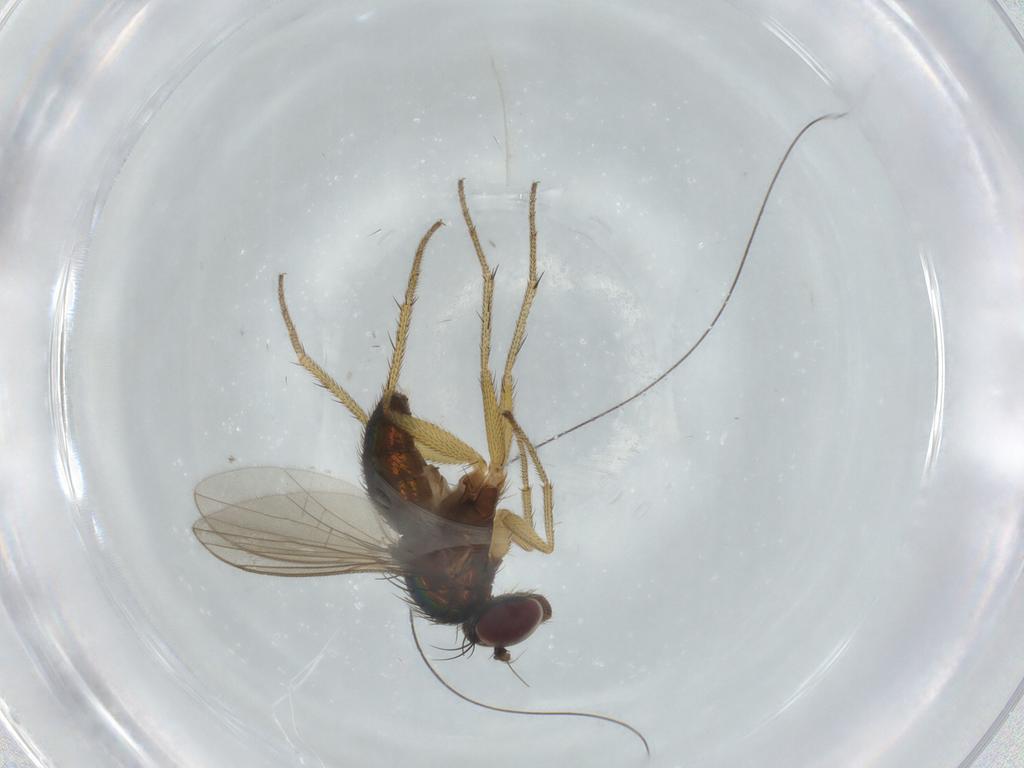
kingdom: Animalia
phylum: Arthropoda
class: Insecta
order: Diptera
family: Dolichopodidae
